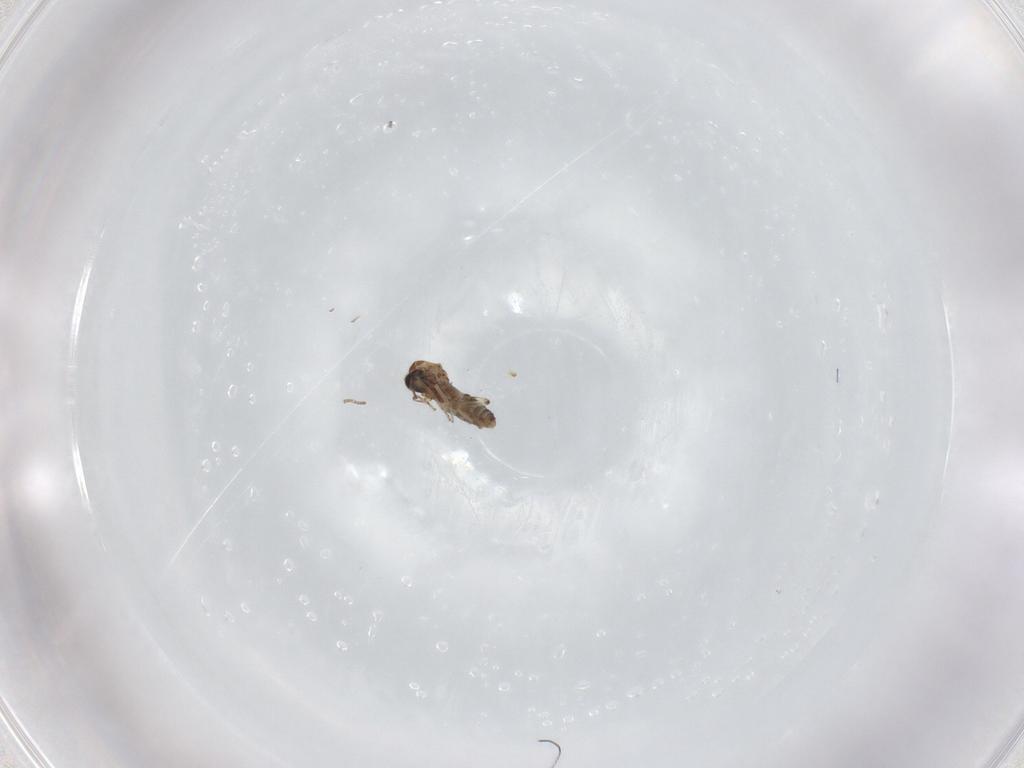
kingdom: Animalia
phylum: Arthropoda
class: Insecta
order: Diptera
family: Ceratopogonidae
